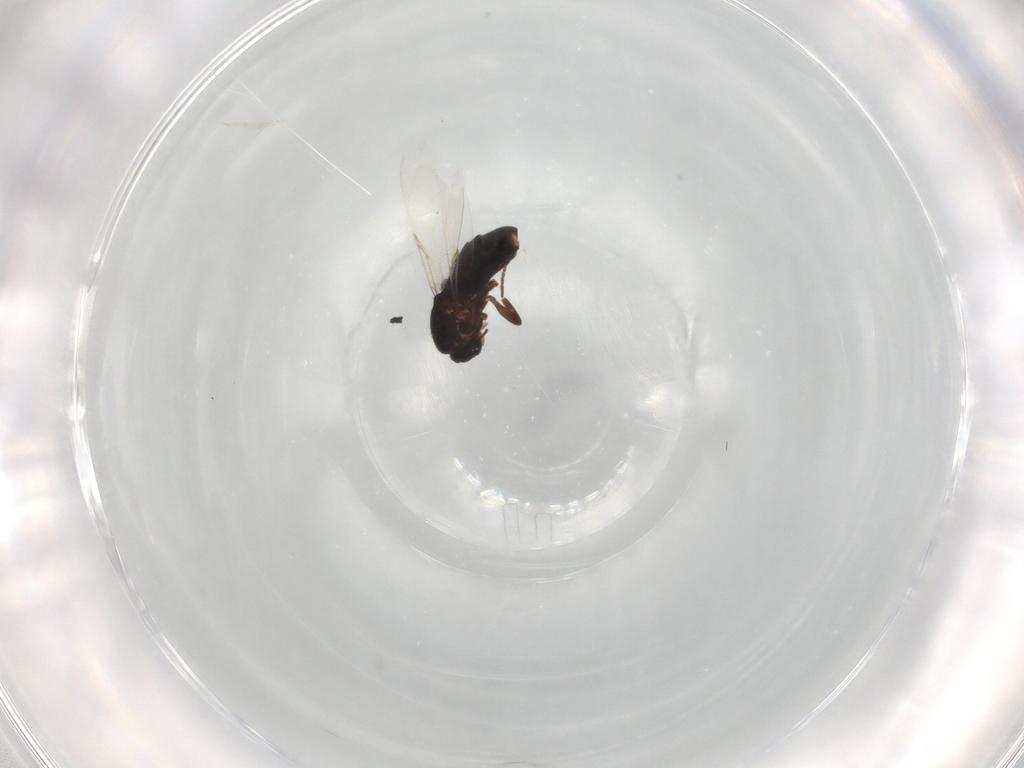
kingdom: Animalia
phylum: Arthropoda
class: Insecta
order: Diptera
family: Scatopsidae
